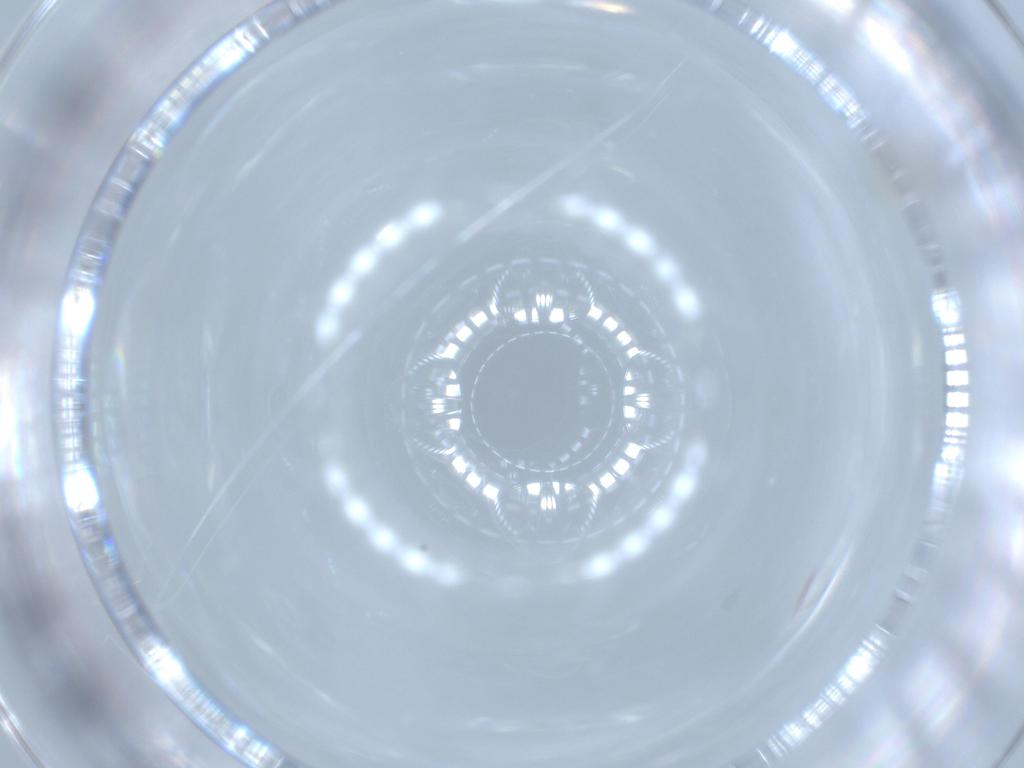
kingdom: Animalia
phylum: Arthropoda
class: Insecta
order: Diptera
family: Cecidomyiidae
